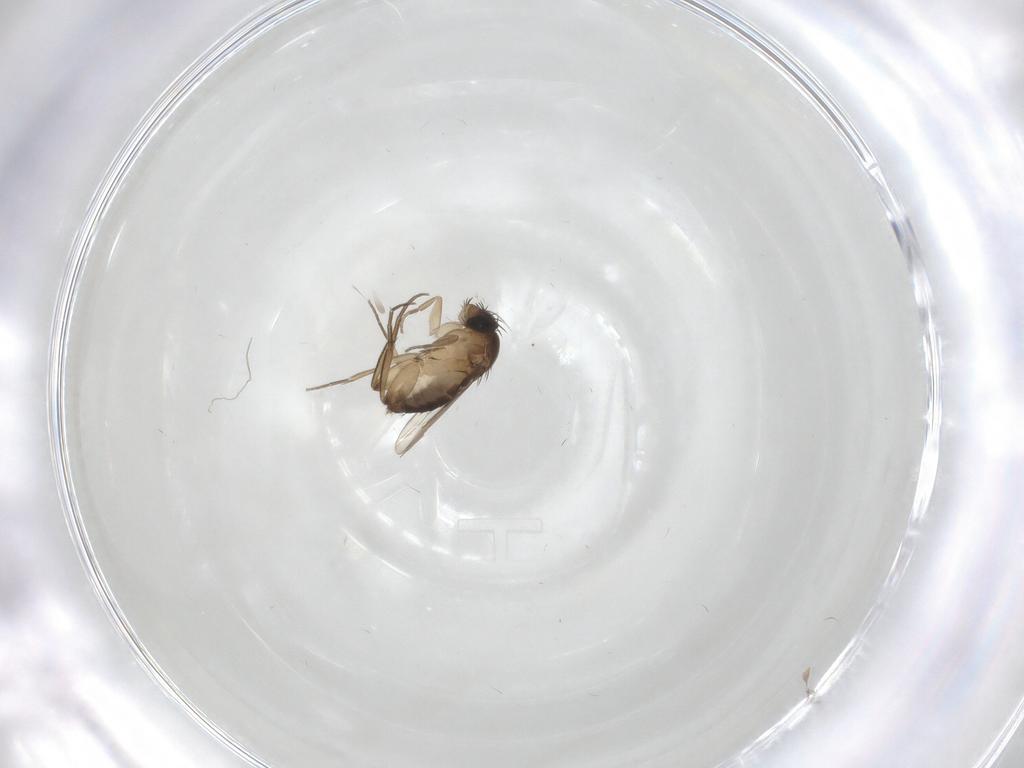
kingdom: Animalia
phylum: Arthropoda
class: Insecta
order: Diptera
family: Phoridae
